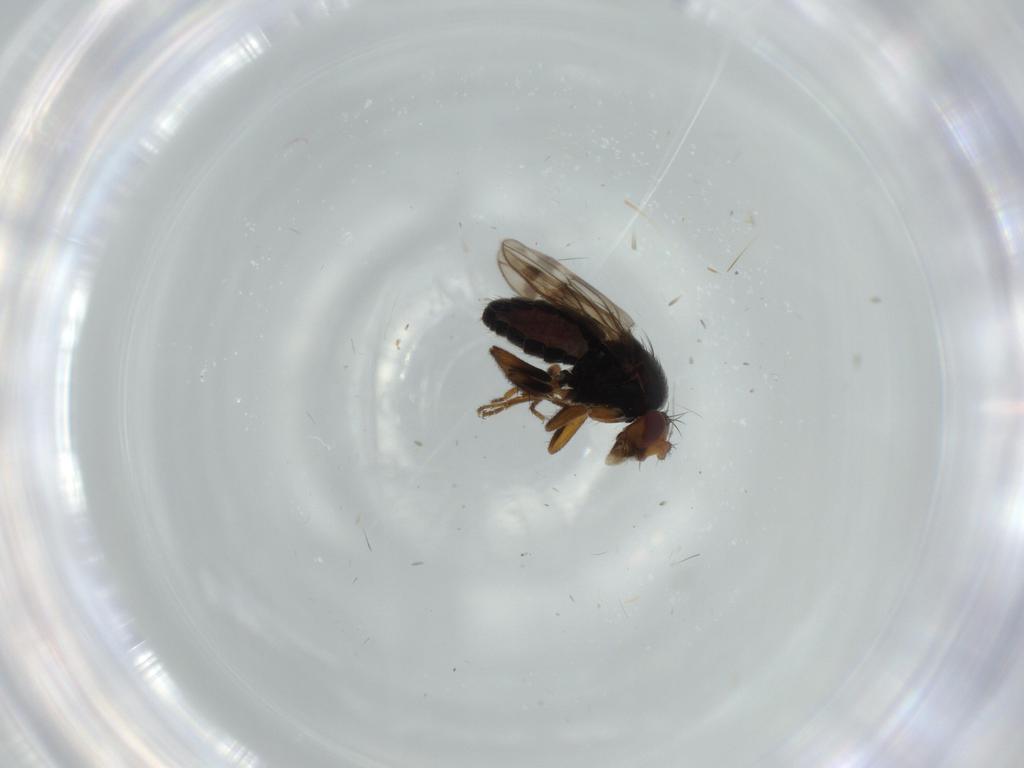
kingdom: Animalia
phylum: Arthropoda
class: Insecta
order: Diptera
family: Sphaeroceridae
